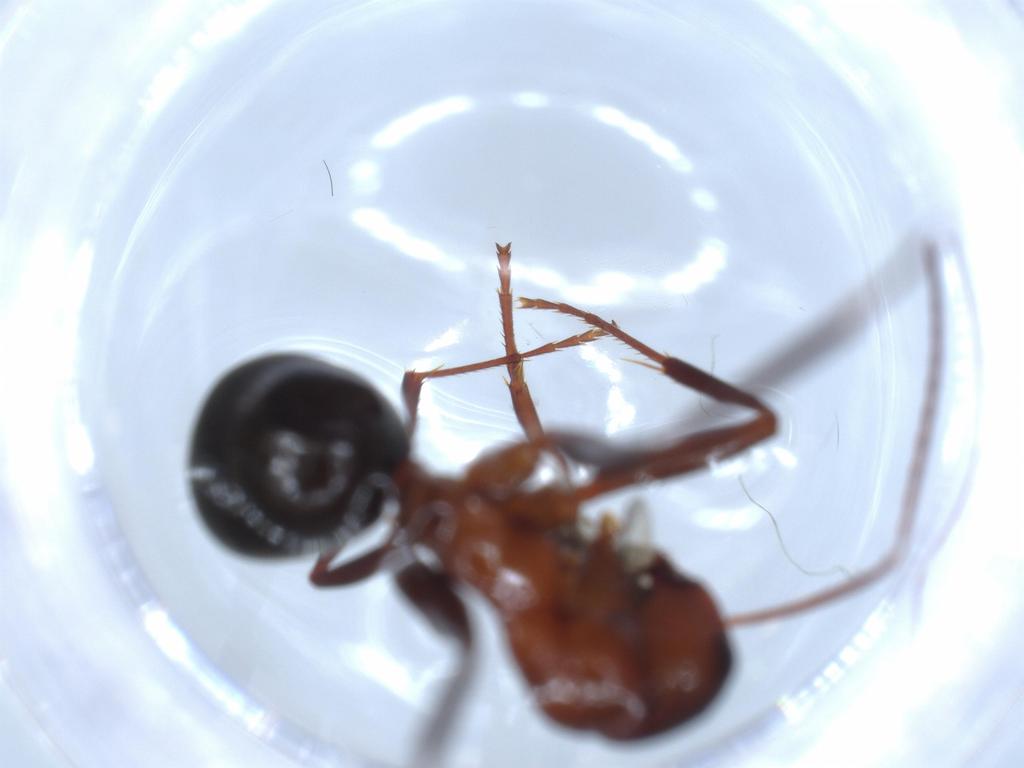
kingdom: Animalia
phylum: Arthropoda
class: Insecta
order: Hymenoptera
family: Formicidae
